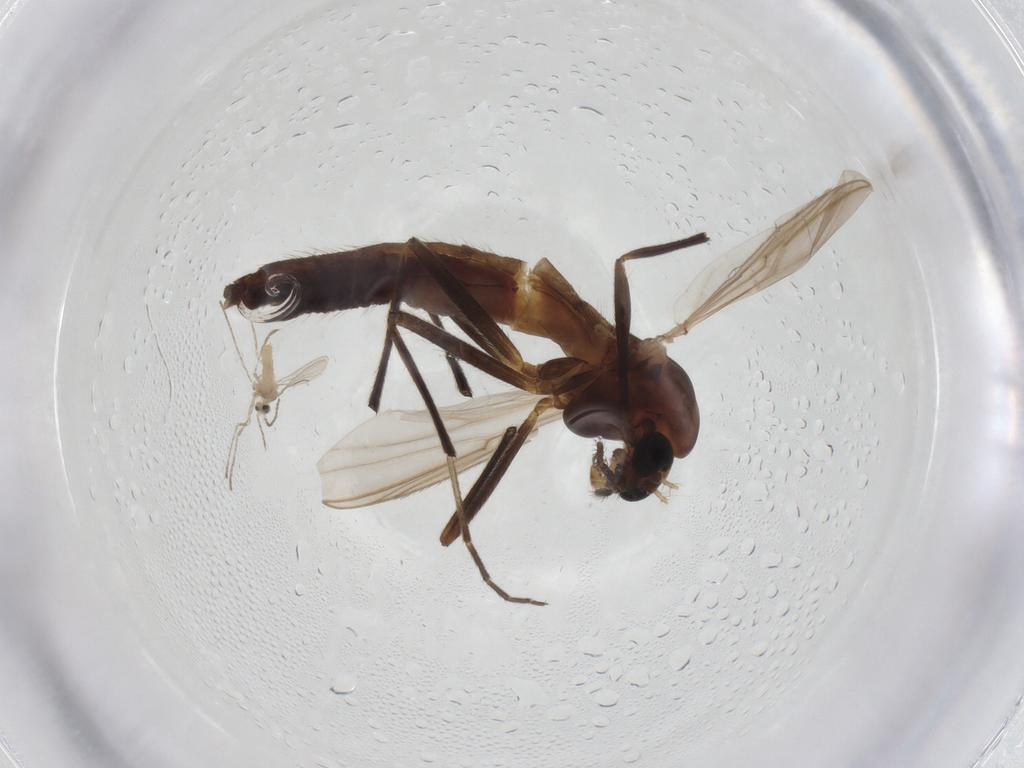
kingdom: Animalia
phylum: Arthropoda
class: Insecta
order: Diptera
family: Chironomidae
